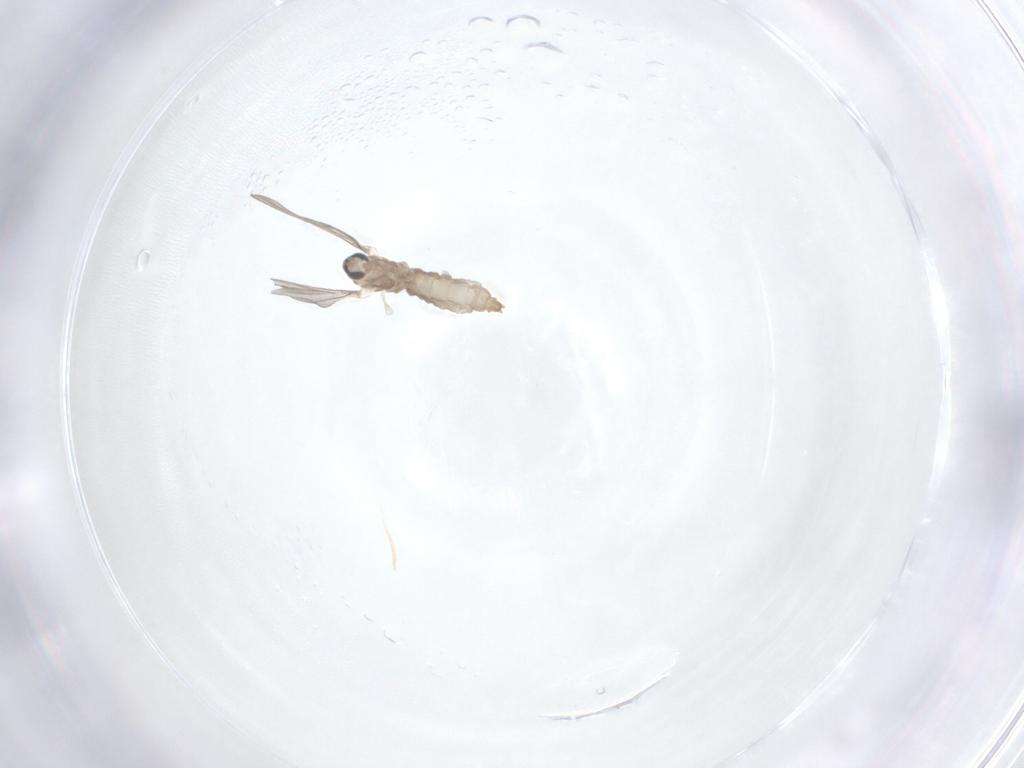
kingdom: Animalia
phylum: Arthropoda
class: Insecta
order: Diptera
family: Cecidomyiidae
